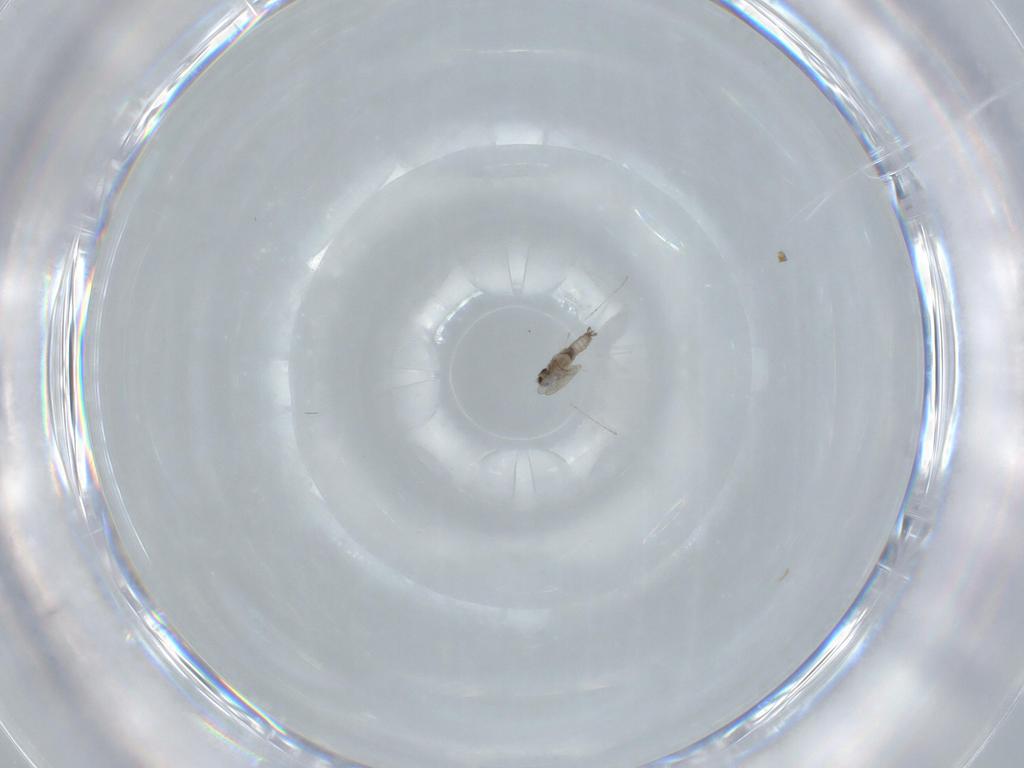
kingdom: Animalia
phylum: Arthropoda
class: Insecta
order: Diptera
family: Cecidomyiidae
